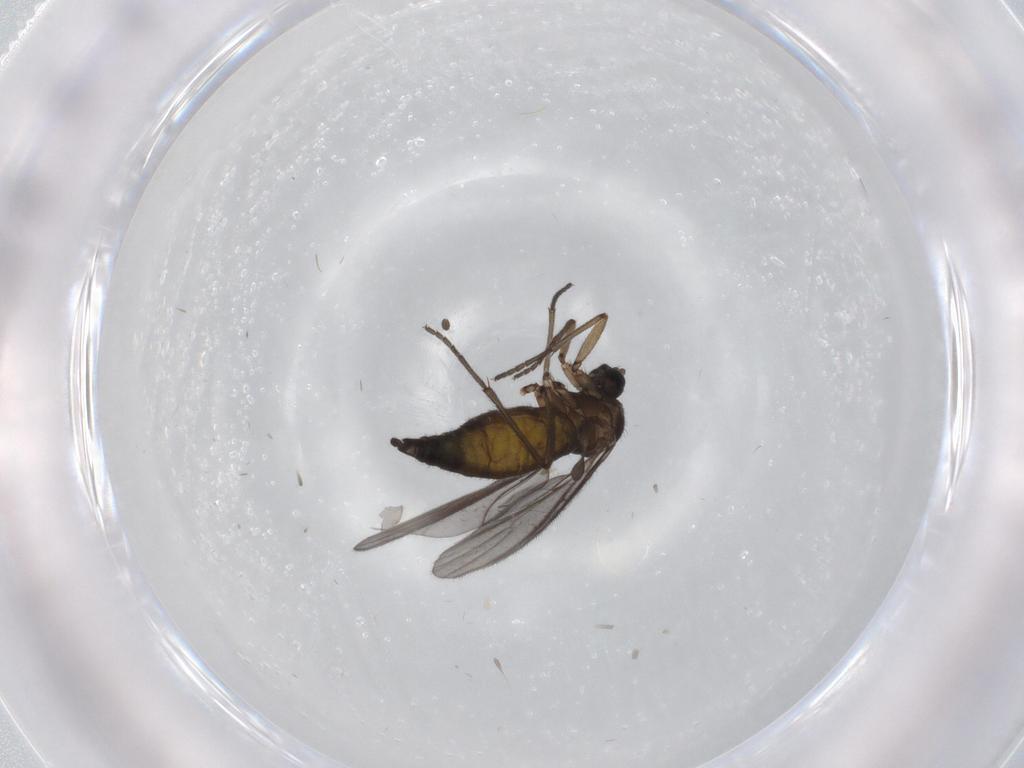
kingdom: Animalia
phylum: Arthropoda
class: Insecta
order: Diptera
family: Sciaridae
